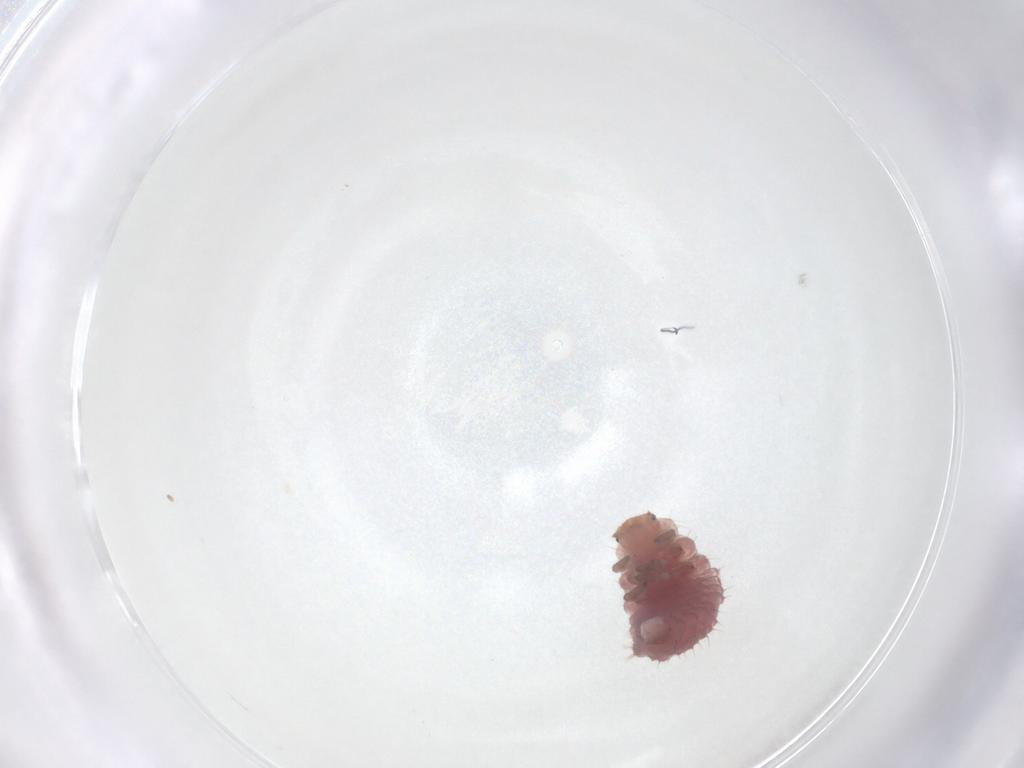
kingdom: Animalia
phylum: Arthropoda
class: Insecta
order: Coleoptera
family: Coccinellidae
